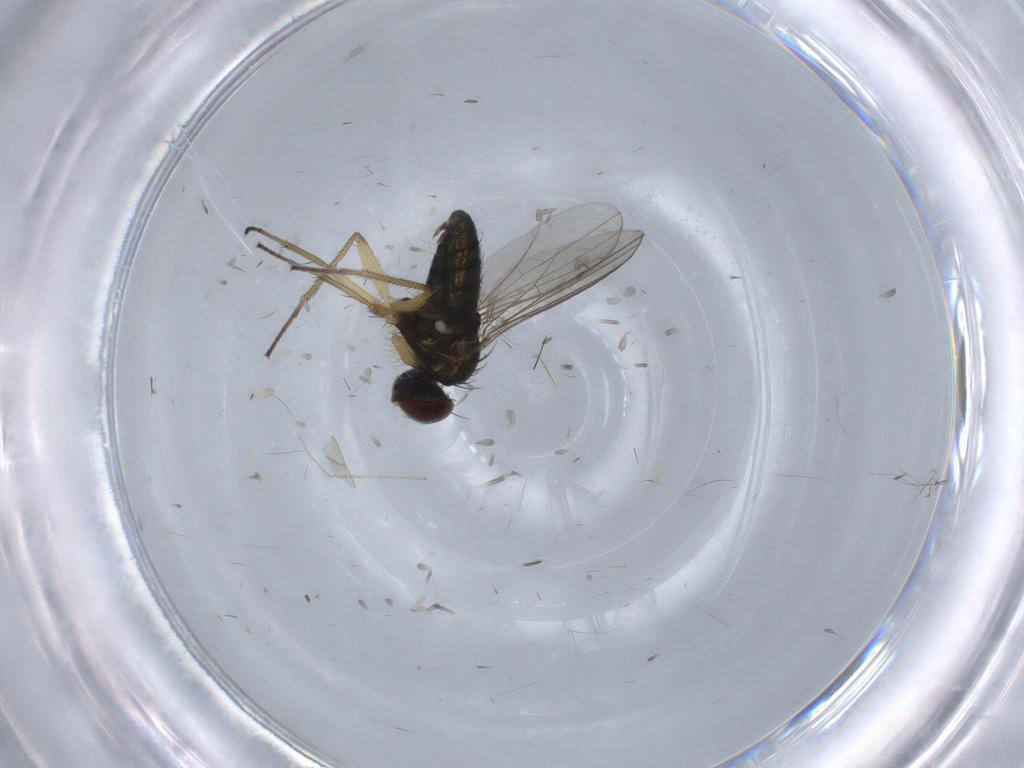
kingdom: Animalia
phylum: Arthropoda
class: Insecta
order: Diptera
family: Dolichopodidae
